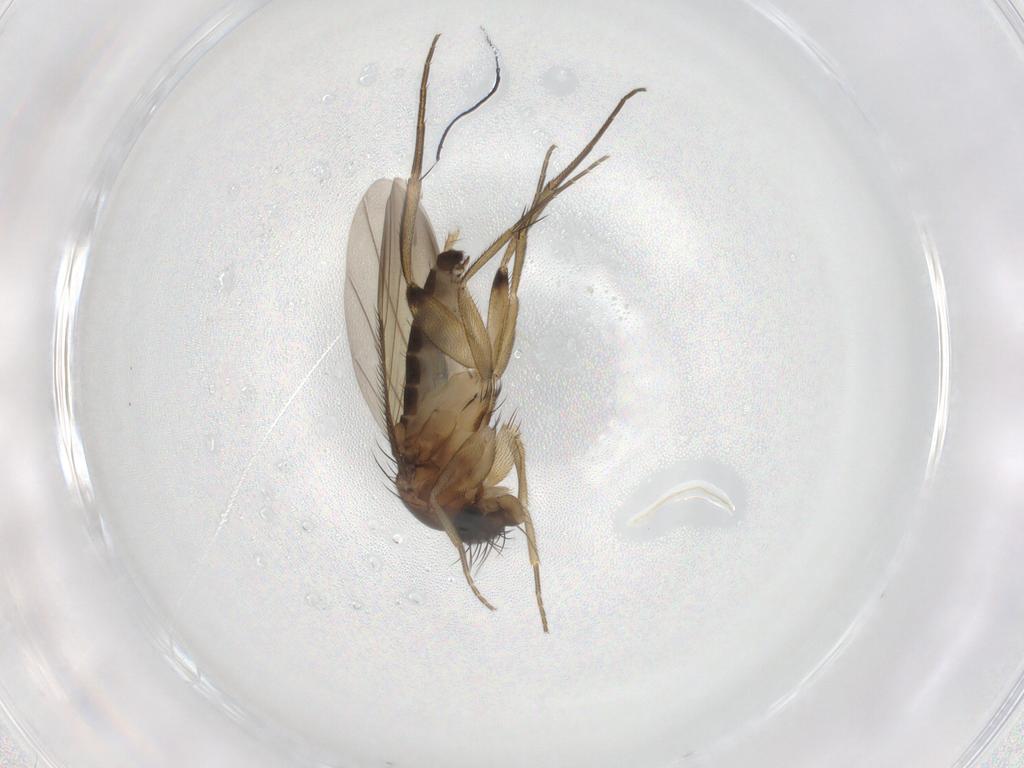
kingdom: Animalia
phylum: Arthropoda
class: Insecta
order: Diptera
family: Phoridae
